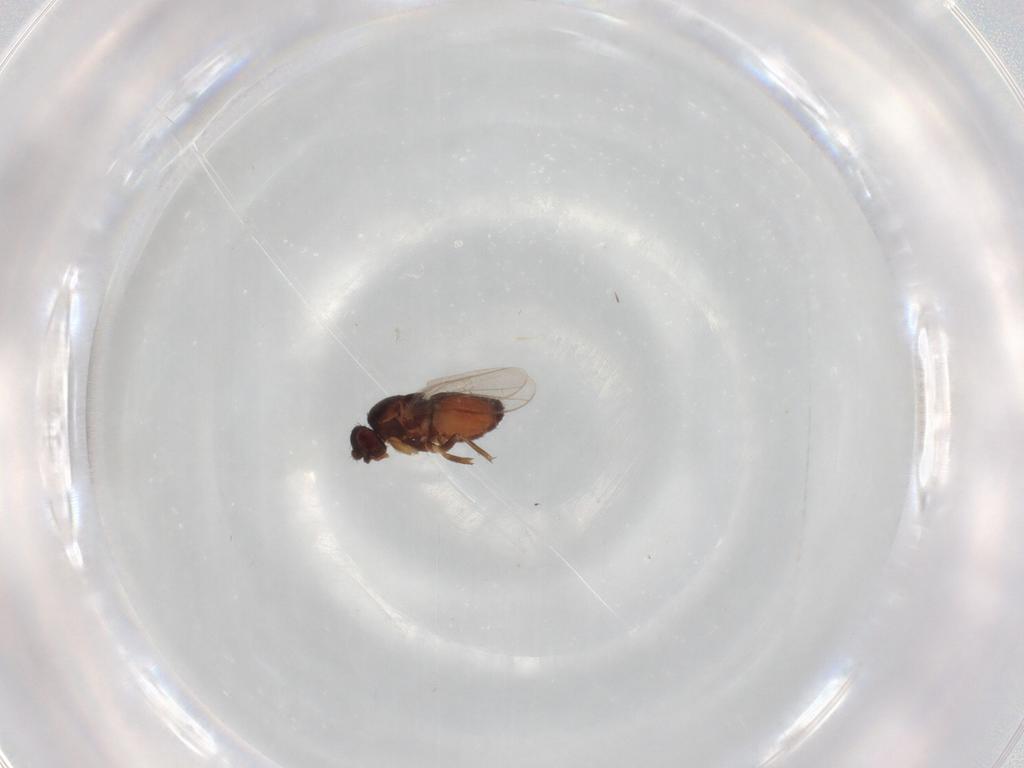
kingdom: Animalia
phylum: Arthropoda
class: Insecta
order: Diptera
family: Sphaeroceridae
